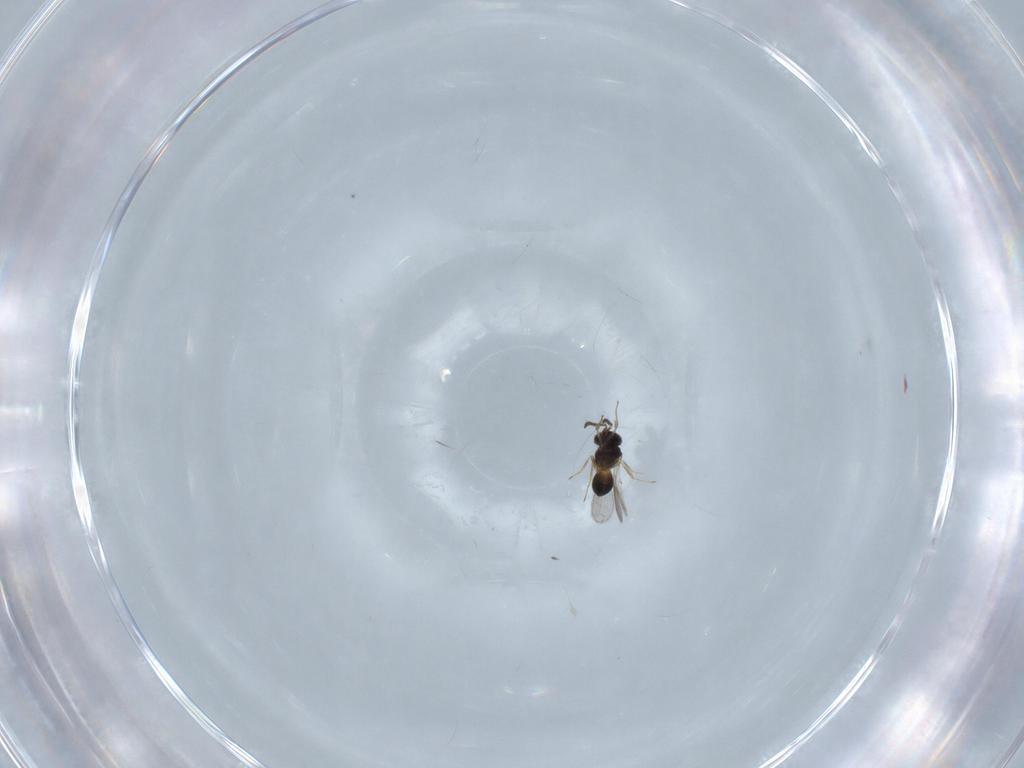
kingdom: Animalia
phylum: Arthropoda
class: Insecta
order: Hymenoptera
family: Scelionidae
